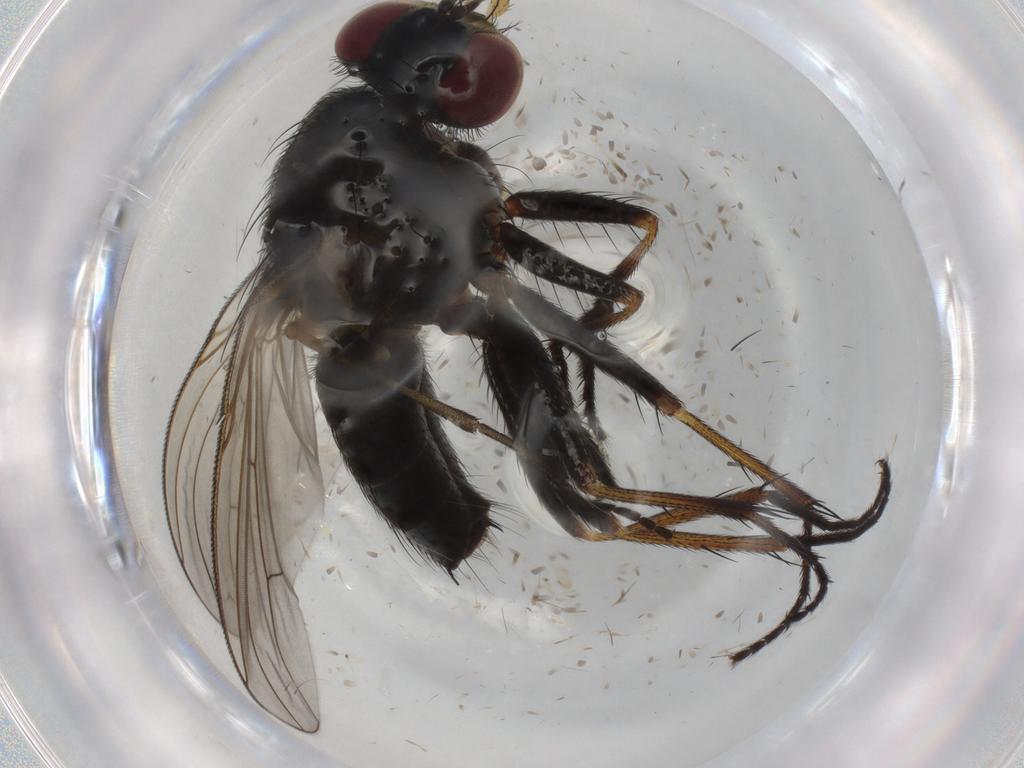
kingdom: Animalia
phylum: Arthropoda
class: Insecta
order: Diptera
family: Muscidae
